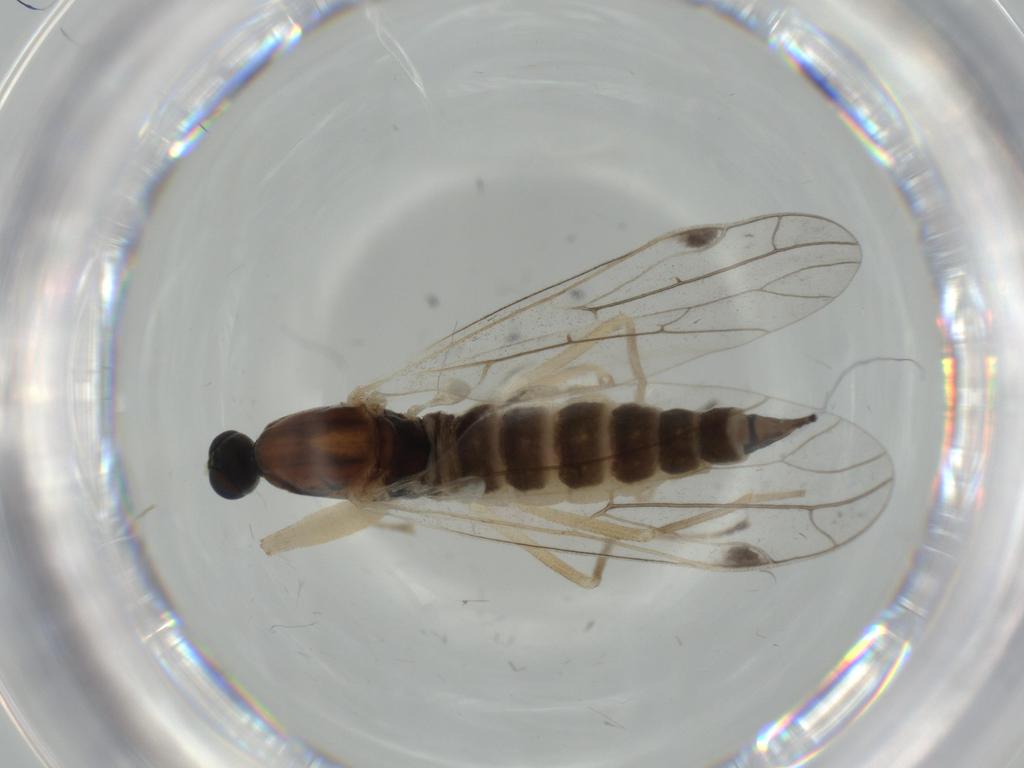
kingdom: Animalia
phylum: Arthropoda
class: Insecta
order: Diptera
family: Empididae
